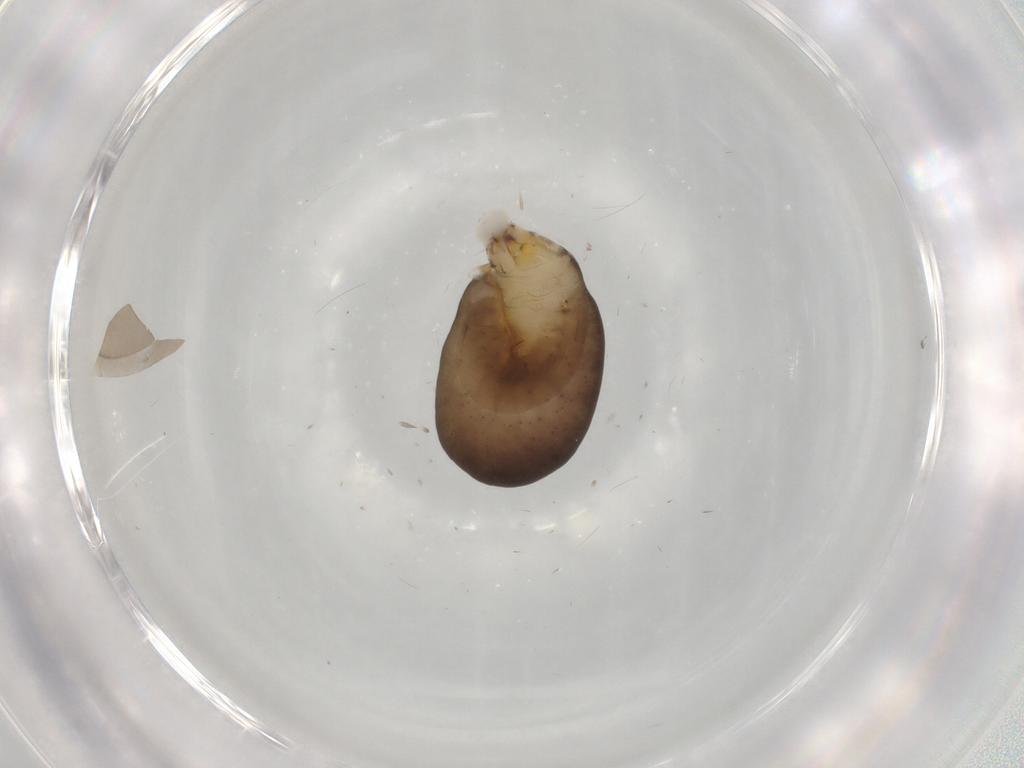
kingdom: Animalia
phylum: Arthropoda
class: Insecta
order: Hymenoptera
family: Dryinidae
